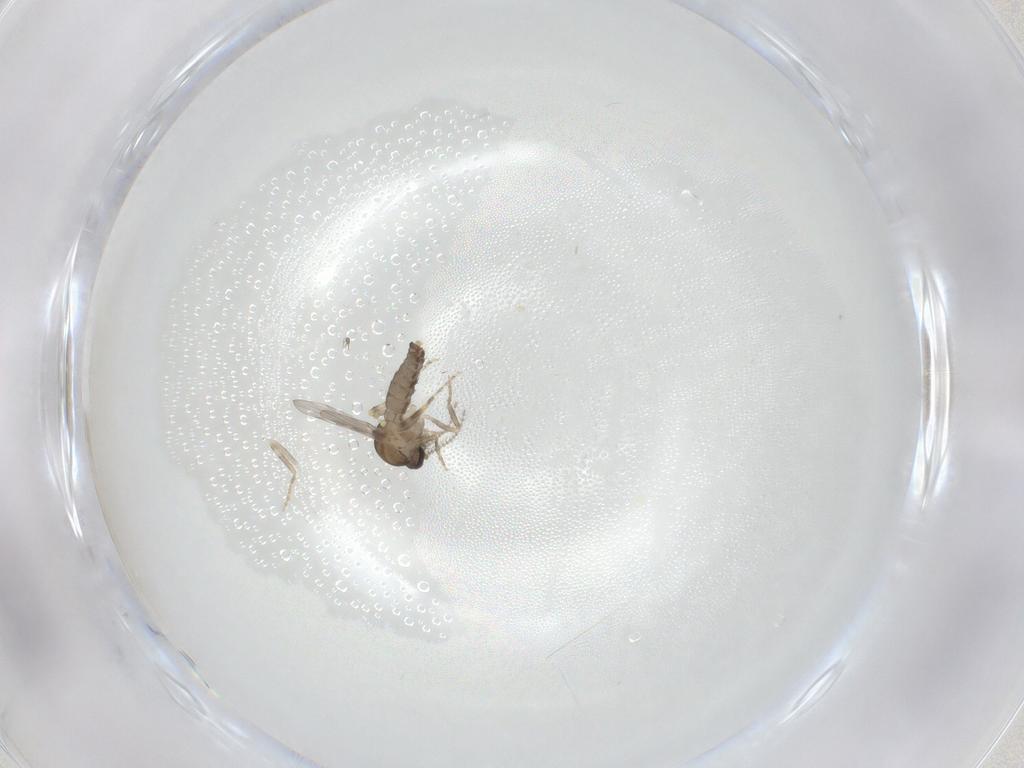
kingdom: Animalia
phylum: Arthropoda
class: Insecta
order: Diptera
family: Ceratopogonidae
